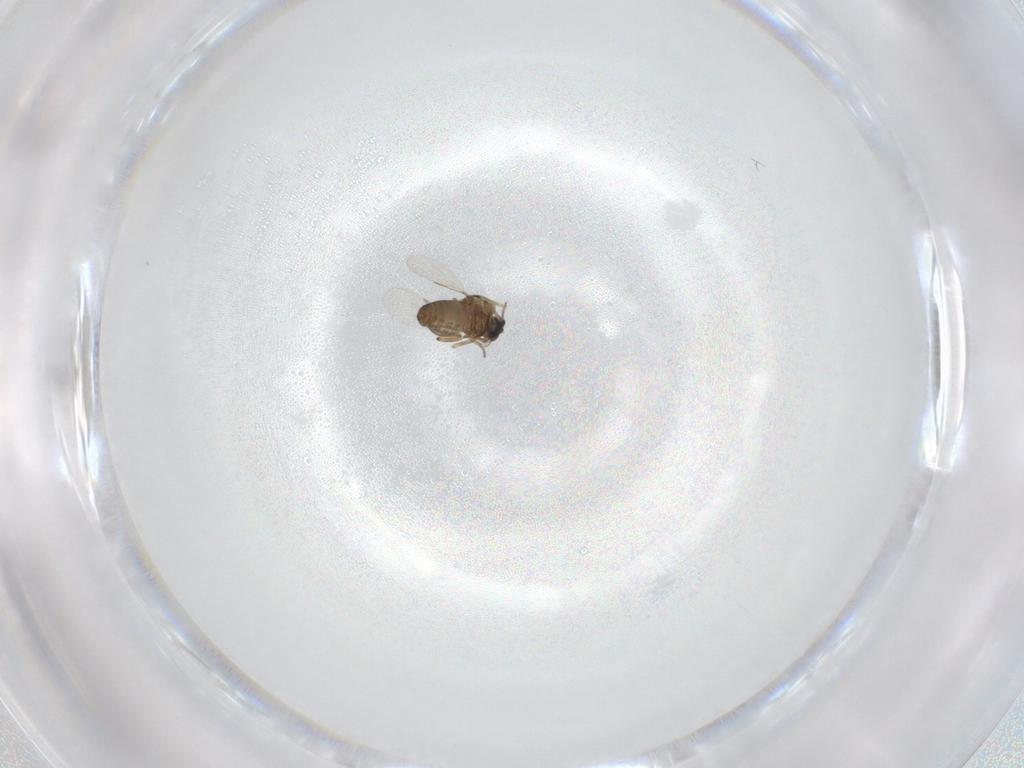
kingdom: Animalia
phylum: Arthropoda
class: Insecta
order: Diptera
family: Ceratopogonidae
